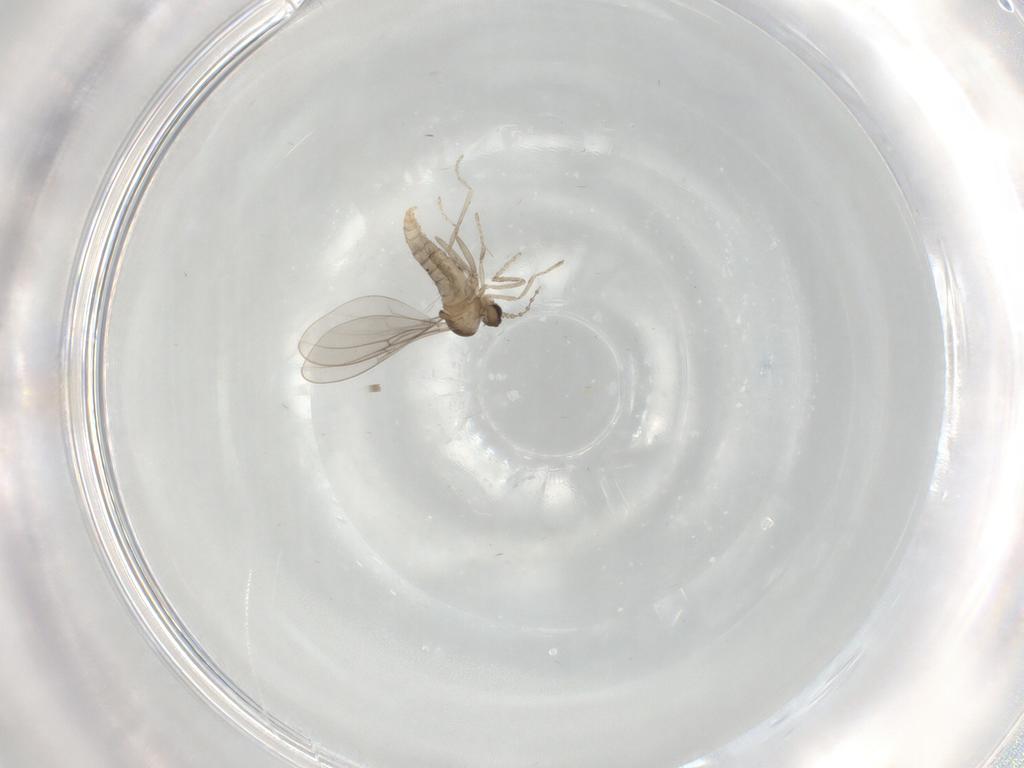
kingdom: Animalia
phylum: Arthropoda
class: Insecta
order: Diptera
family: Cecidomyiidae
